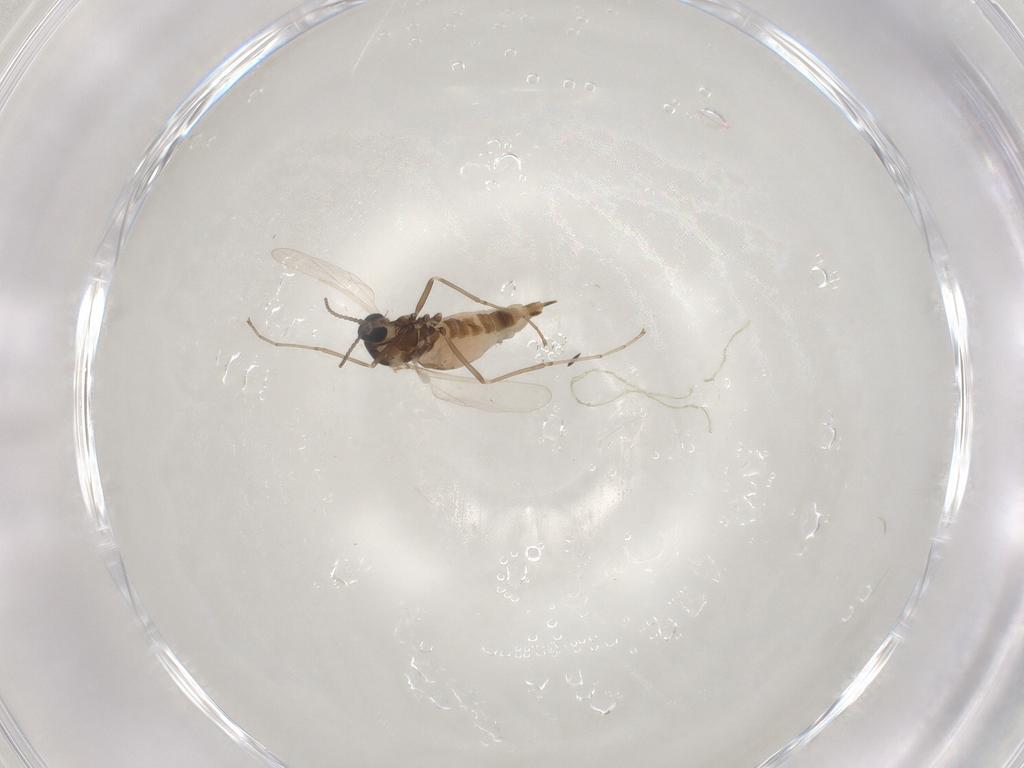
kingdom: Animalia
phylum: Arthropoda
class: Insecta
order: Diptera
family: Cecidomyiidae
